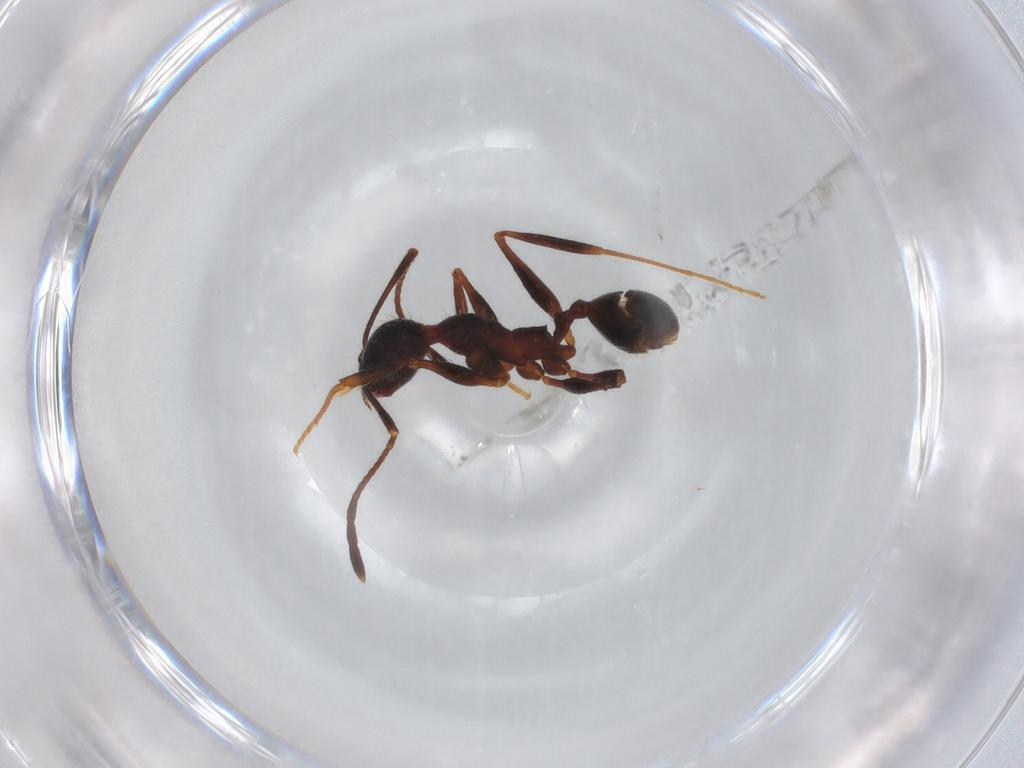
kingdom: Animalia
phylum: Arthropoda
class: Insecta
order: Hymenoptera
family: Formicidae
